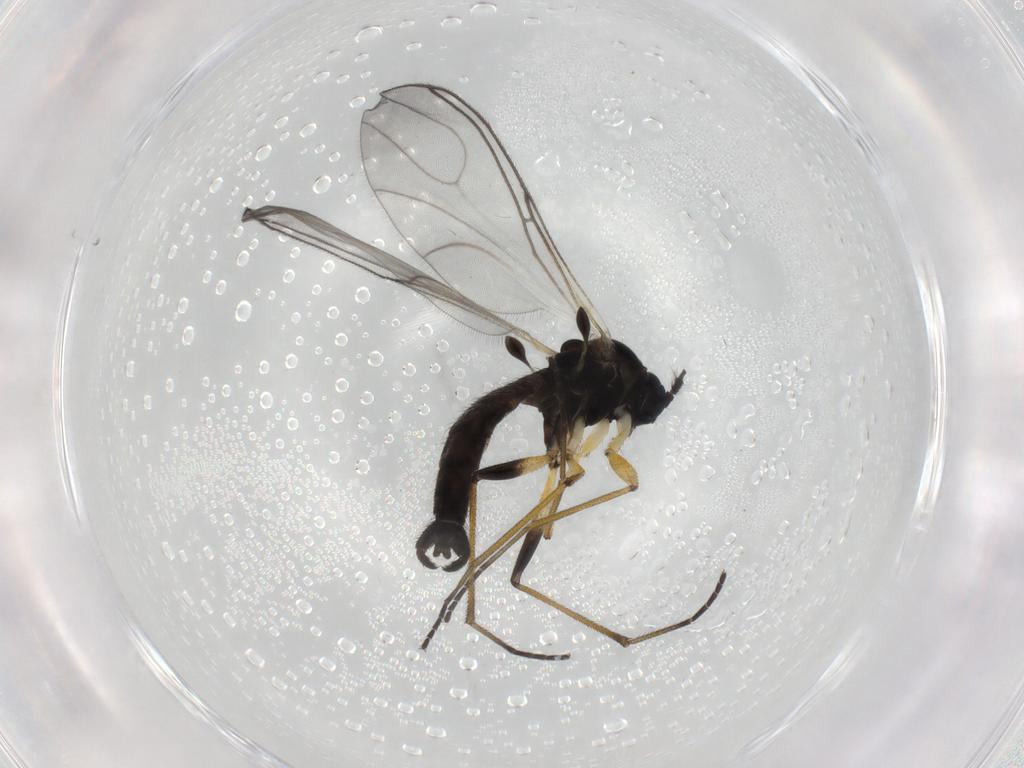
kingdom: Animalia
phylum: Arthropoda
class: Insecta
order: Diptera
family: Sciaridae
